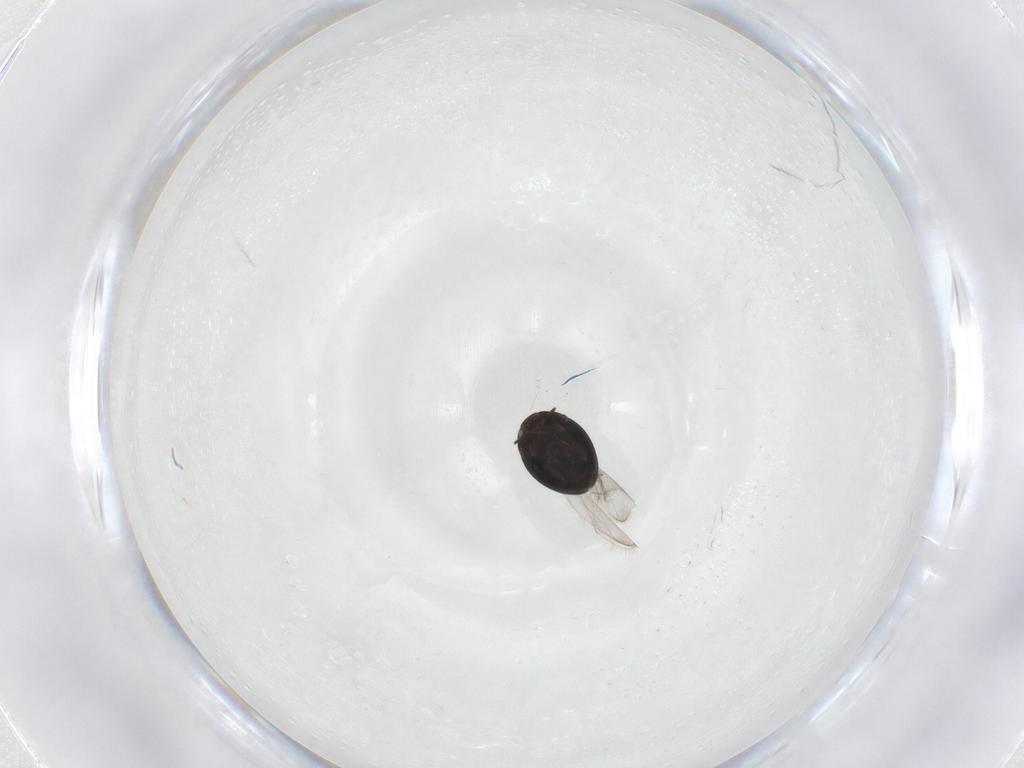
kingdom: Animalia
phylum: Arthropoda
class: Insecta
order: Coleoptera
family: Corylophidae
